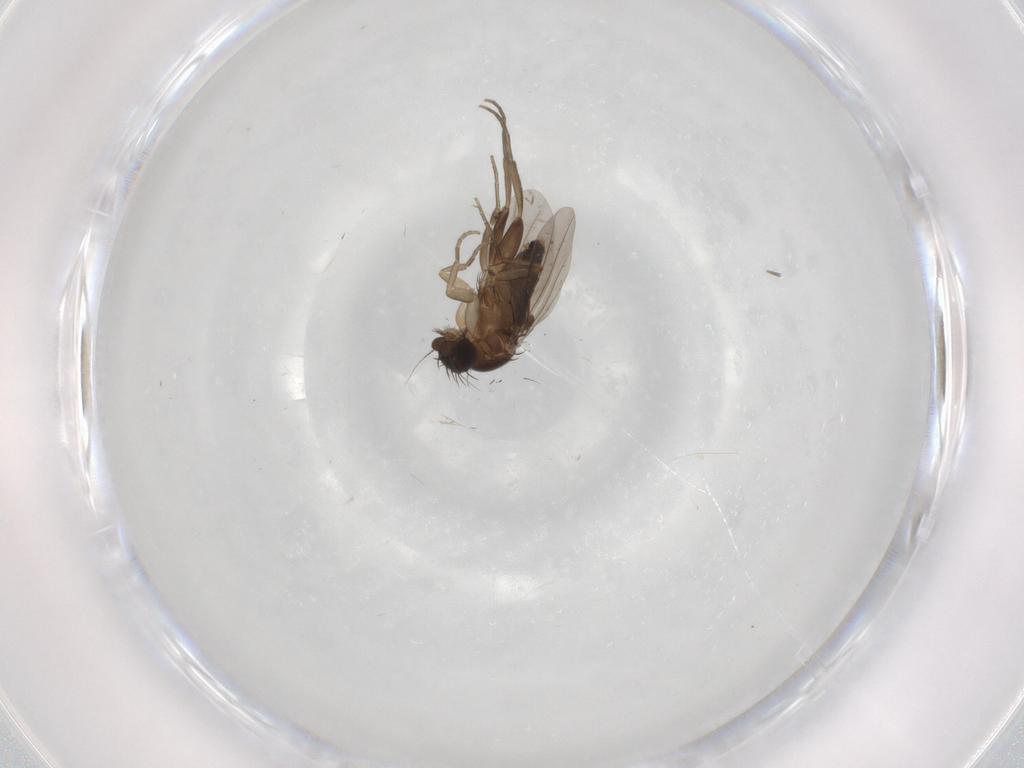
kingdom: Animalia
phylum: Arthropoda
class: Insecta
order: Diptera
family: Phoridae
